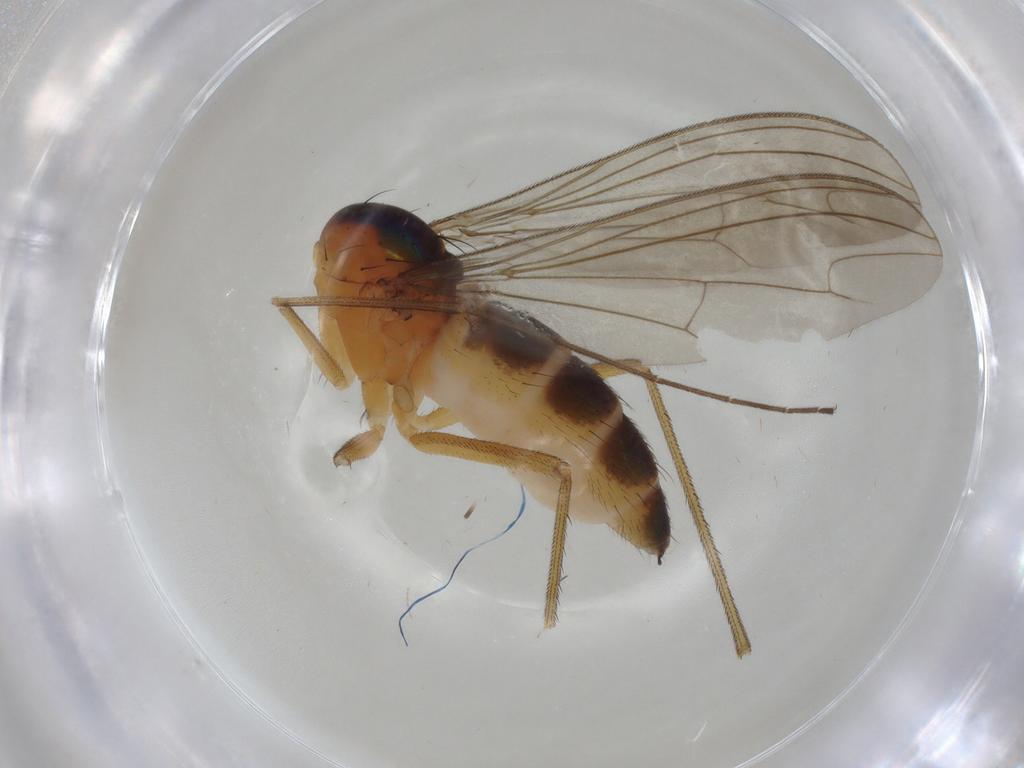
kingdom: Animalia
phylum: Arthropoda
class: Insecta
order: Diptera
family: Dolichopodidae
